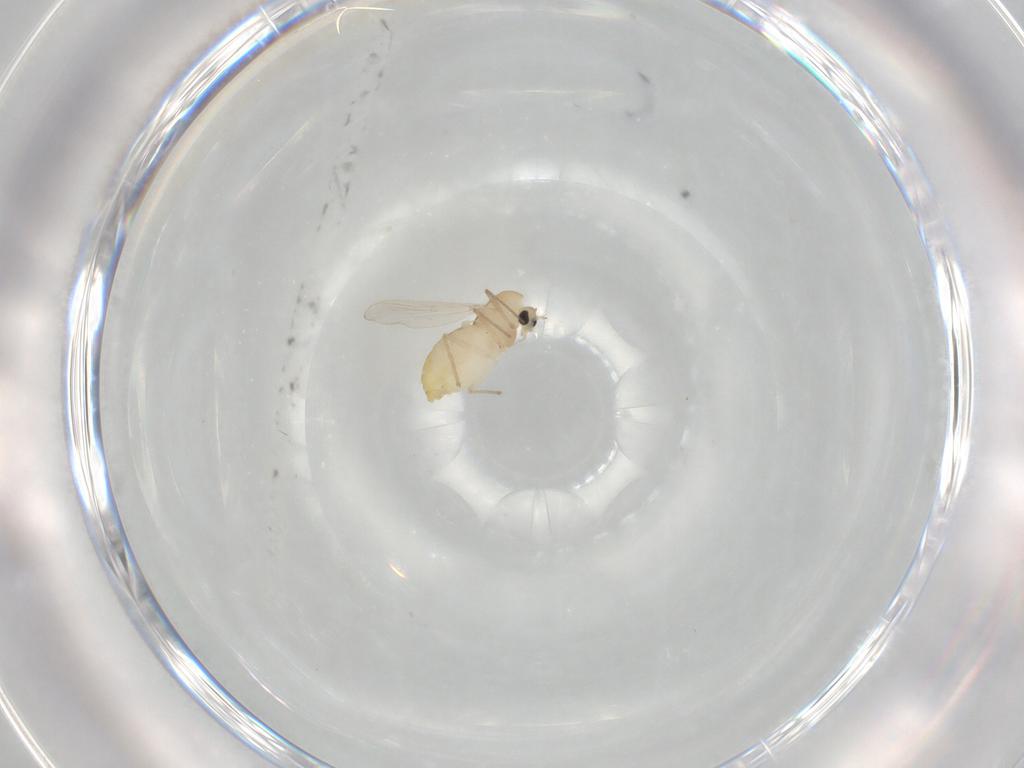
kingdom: Animalia
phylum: Arthropoda
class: Insecta
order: Diptera
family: Chironomidae
